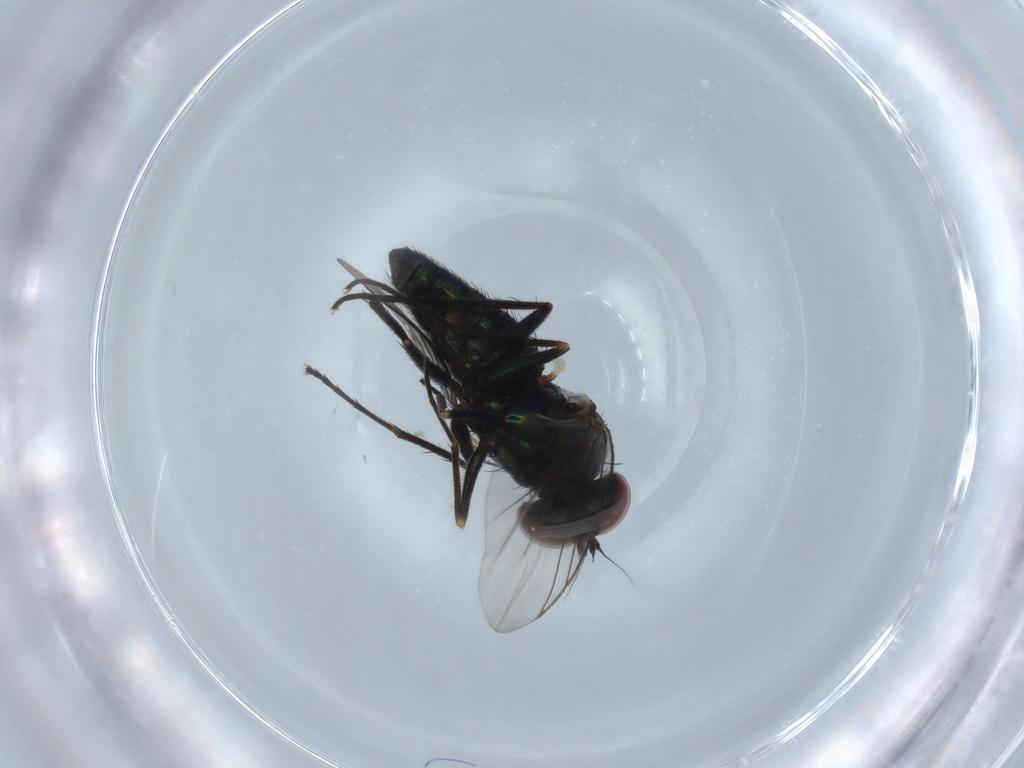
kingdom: Animalia
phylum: Arthropoda
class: Insecta
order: Diptera
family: Dolichopodidae
